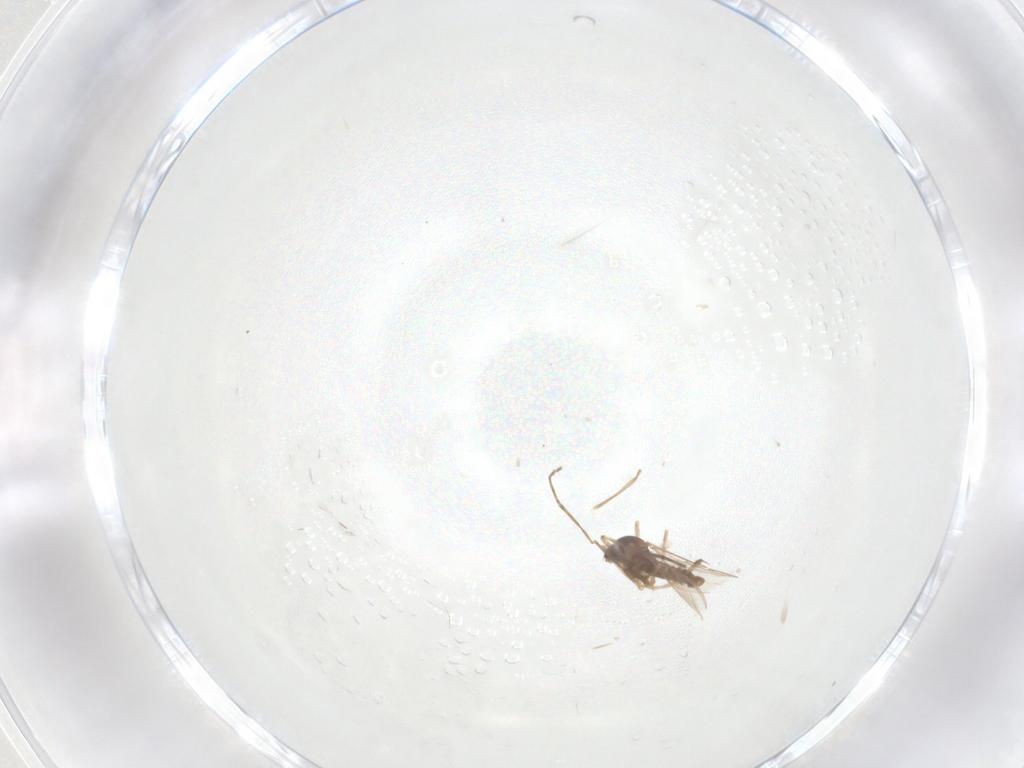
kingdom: Animalia
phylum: Arthropoda
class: Insecta
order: Diptera
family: Cecidomyiidae
